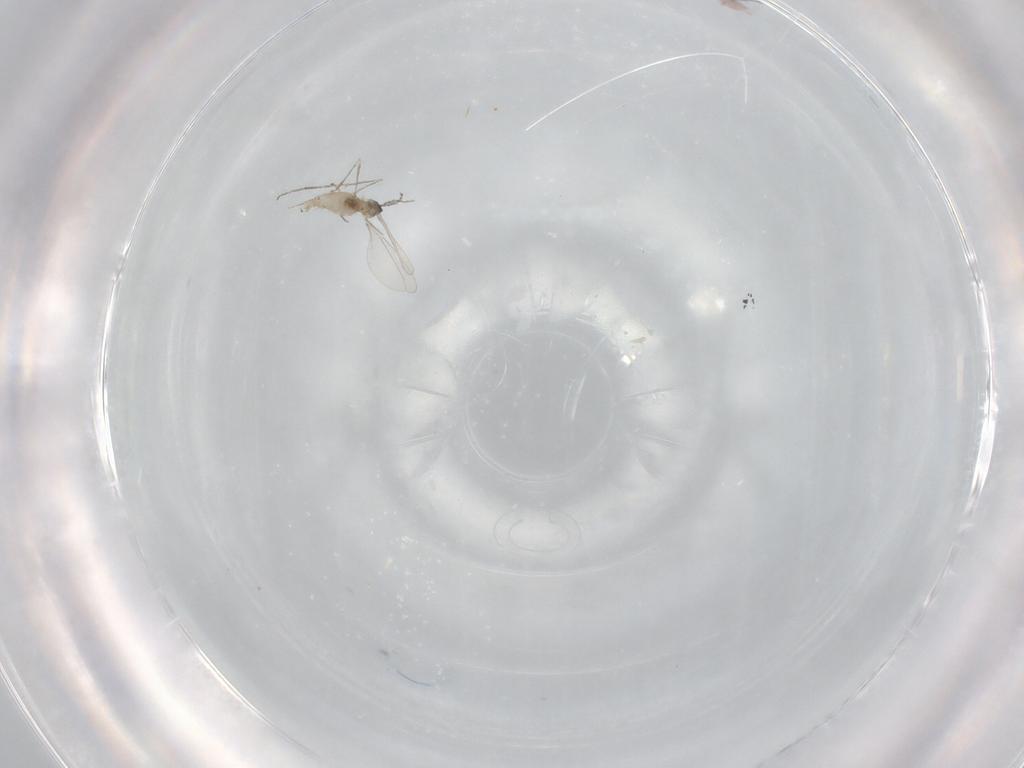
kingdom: Animalia
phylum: Arthropoda
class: Insecta
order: Diptera
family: Cecidomyiidae
